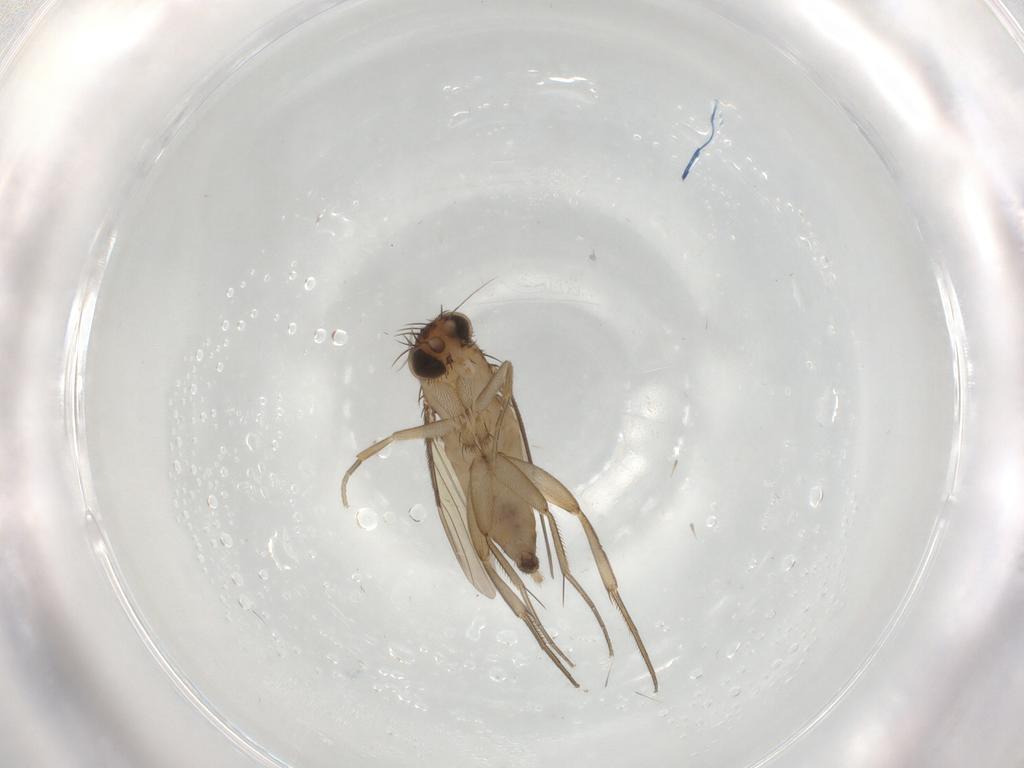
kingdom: Animalia
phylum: Arthropoda
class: Insecta
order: Diptera
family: Phoridae
